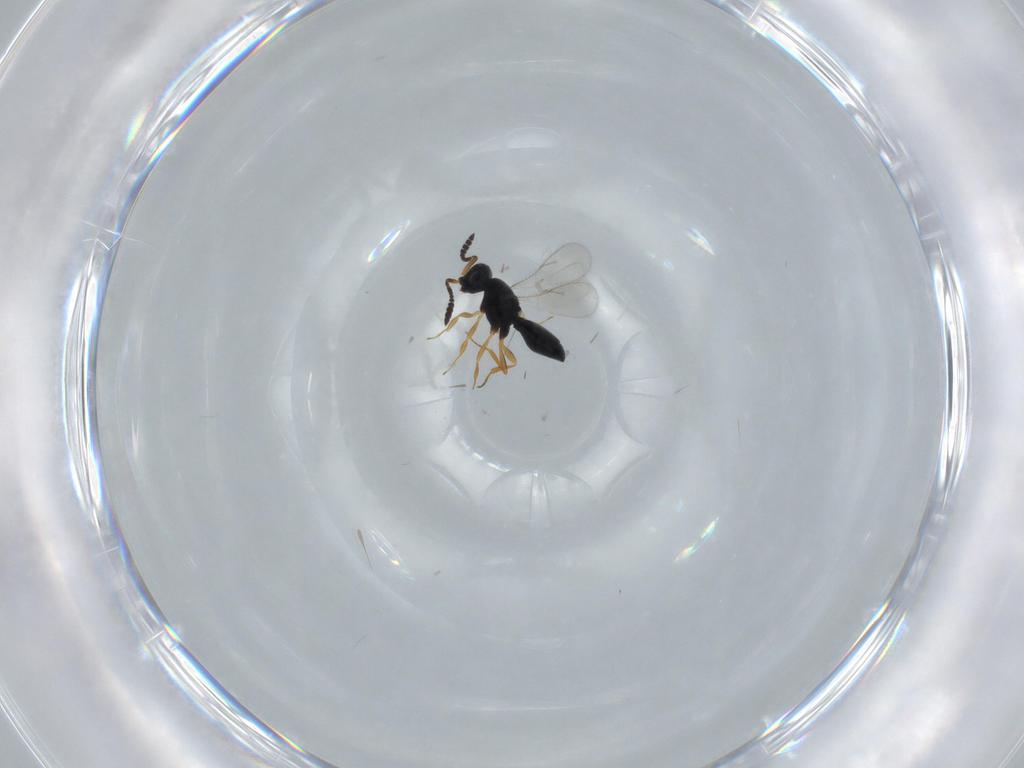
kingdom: Animalia
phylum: Arthropoda
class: Insecta
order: Hymenoptera
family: Scelionidae
